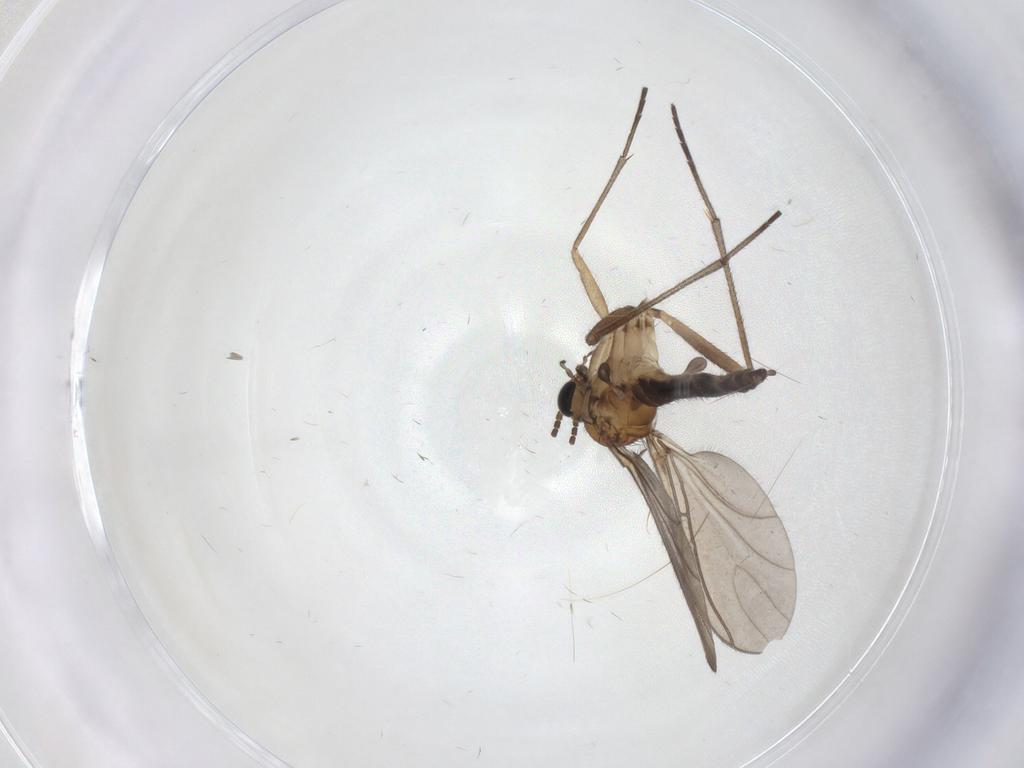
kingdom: Animalia
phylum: Arthropoda
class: Insecta
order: Diptera
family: Sciaridae
